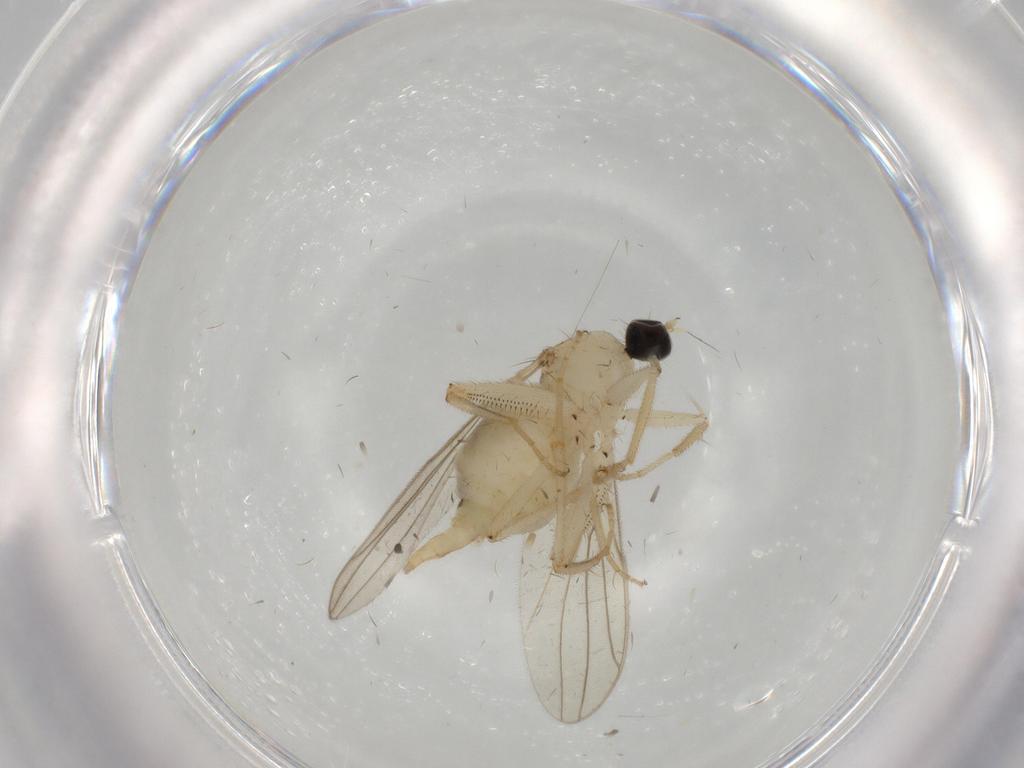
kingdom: Animalia
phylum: Arthropoda
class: Insecta
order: Diptera
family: Hybotidae
